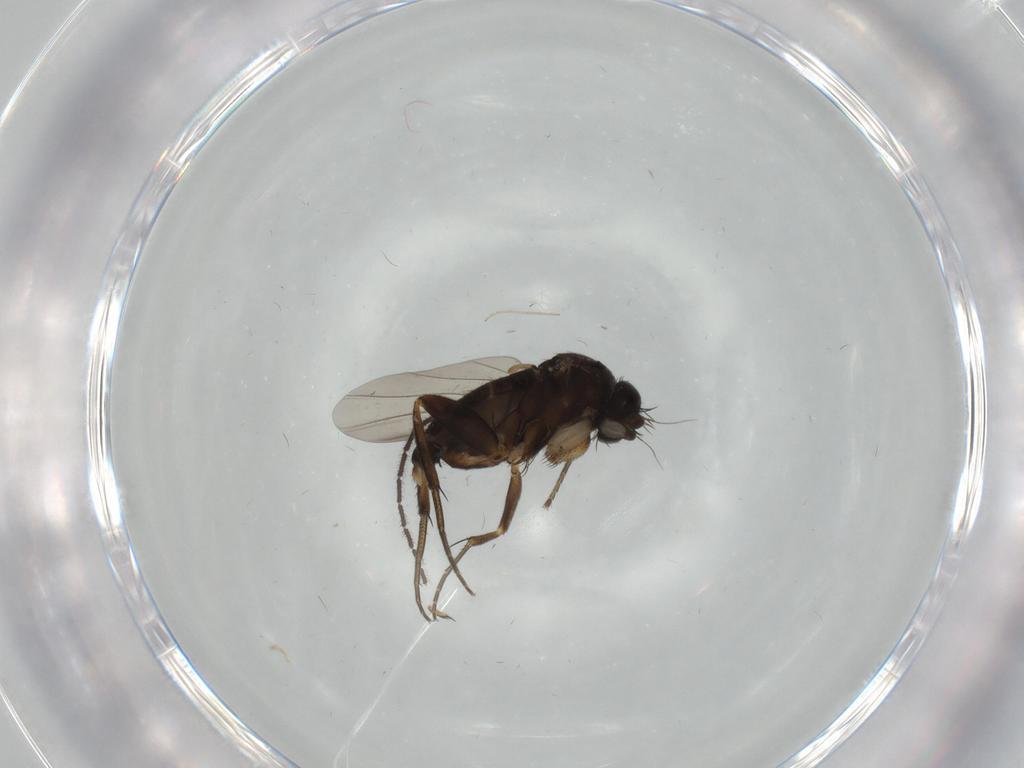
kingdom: Animalia
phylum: Arthropoda
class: Insecta
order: Diptera
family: Phoridae
